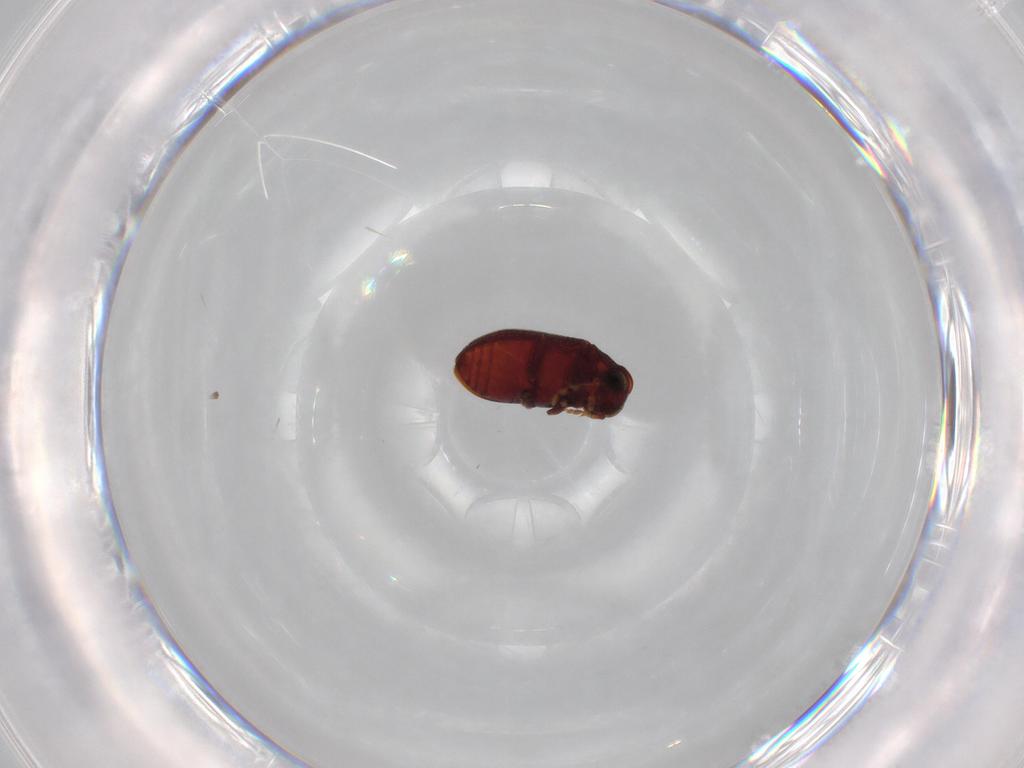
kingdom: Animalia
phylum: Arthropoda
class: Insecta
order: Coleoptera
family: Ptinidae
